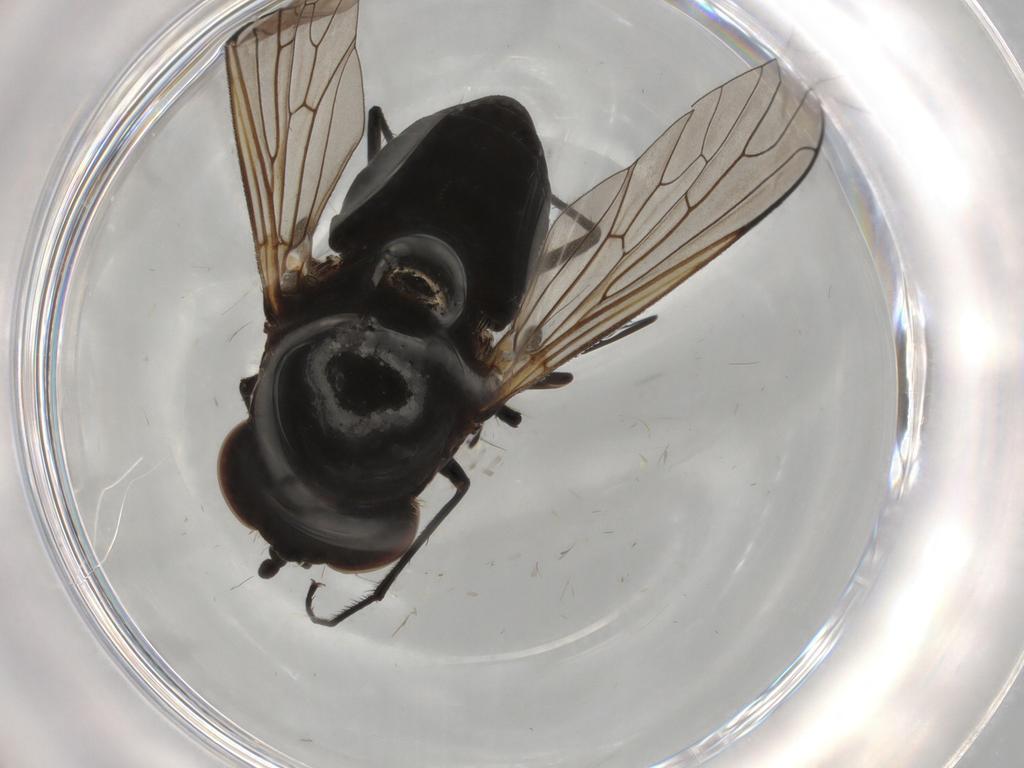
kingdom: Animalia
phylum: Arthropoda
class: Insecta
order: Diptera
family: Bombyliidae
